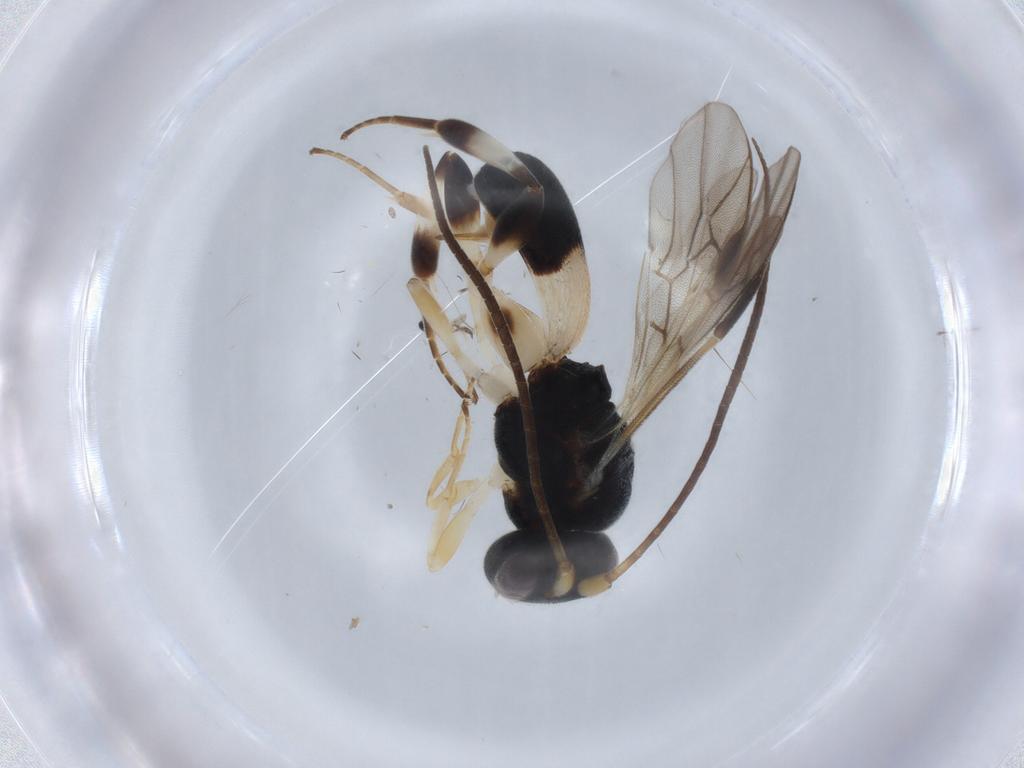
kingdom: Animalia
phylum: Arthropoda
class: Insecta
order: Hymenoptera
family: Braconidae
